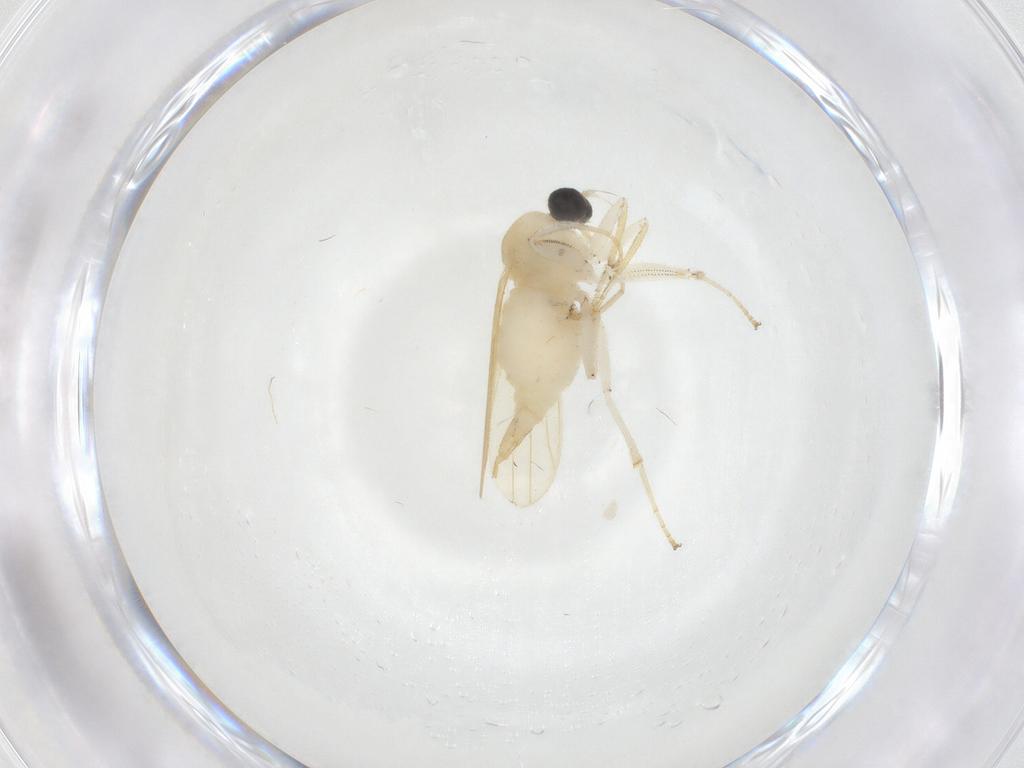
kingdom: Animalia
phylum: Arthropoda
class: Insecta
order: Diptera
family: Hybotidae
